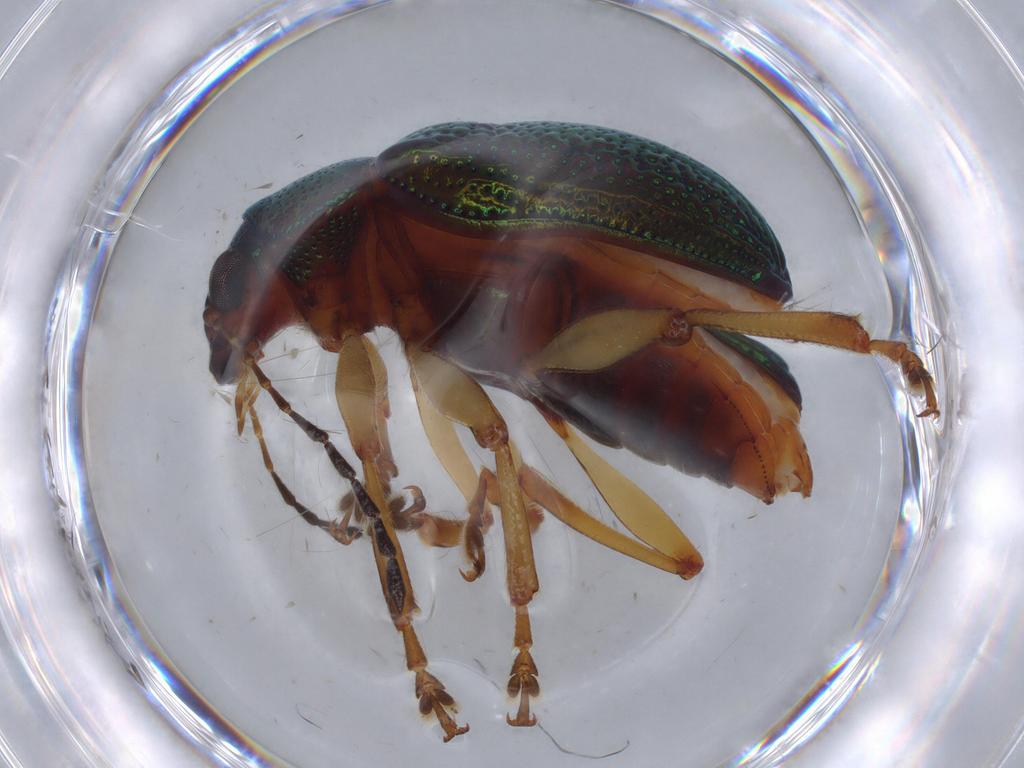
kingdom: Animalia
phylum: Arthropoda
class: Insecta
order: Coleoptera
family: Chrysomelidae
